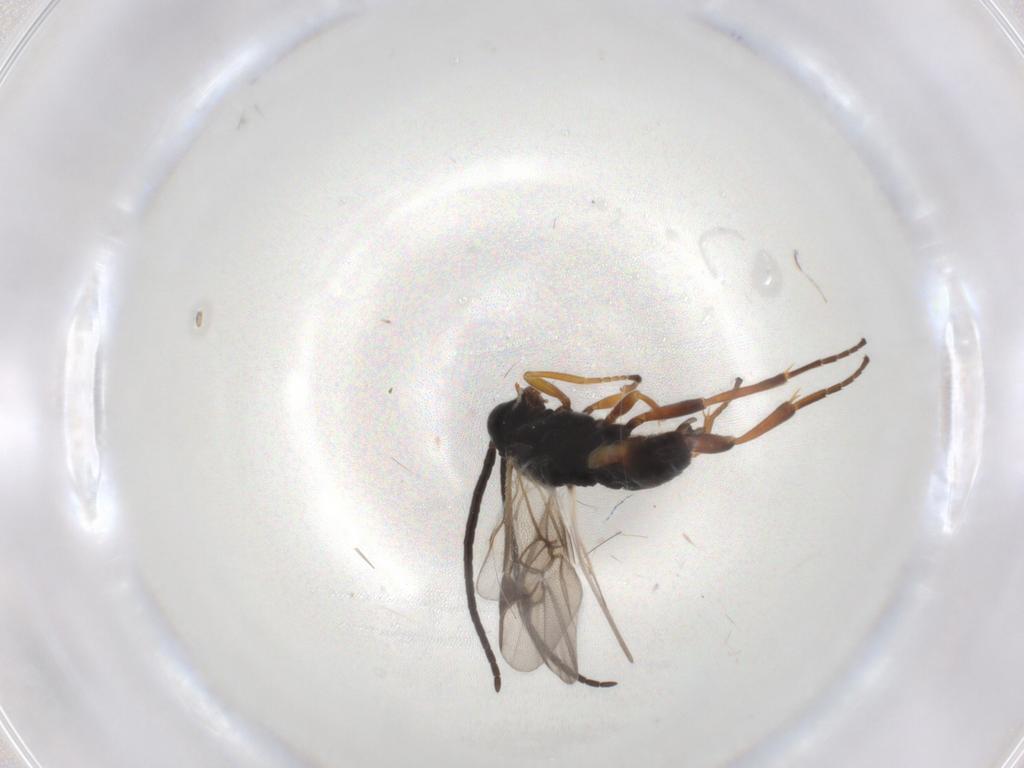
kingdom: Animalia
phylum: Arthropoda
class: Insecta
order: Hymenoptera
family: Braconidae
